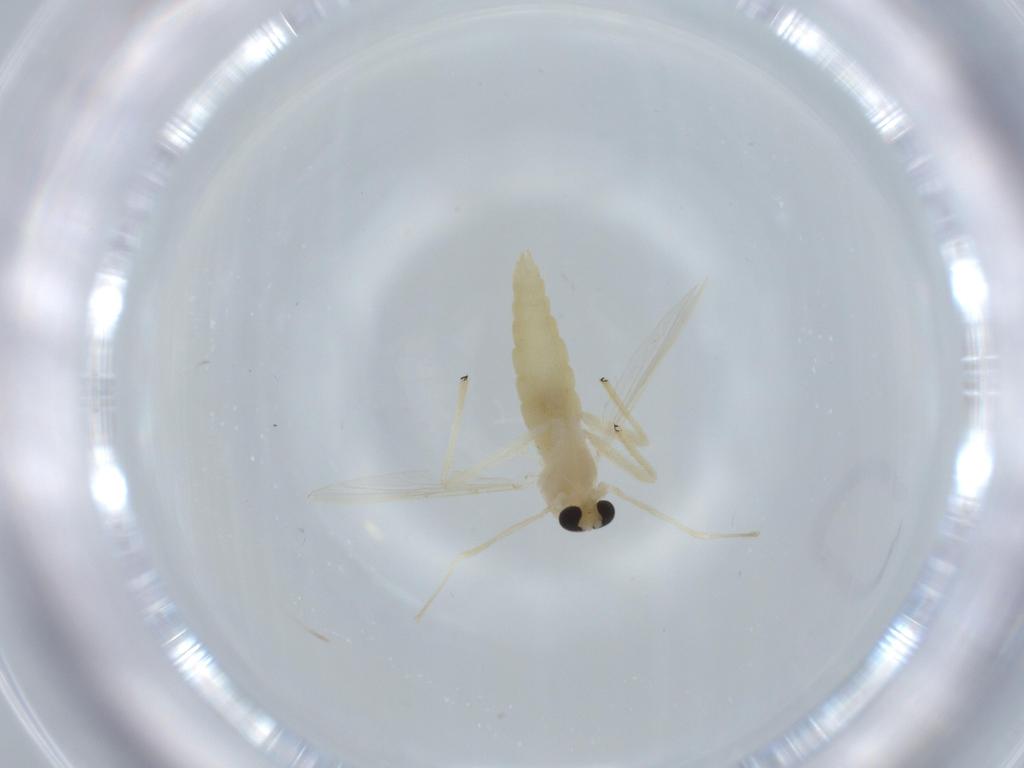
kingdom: Animalia
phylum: Arthropoda
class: Insecta
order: Diptera
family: Chironomidae
